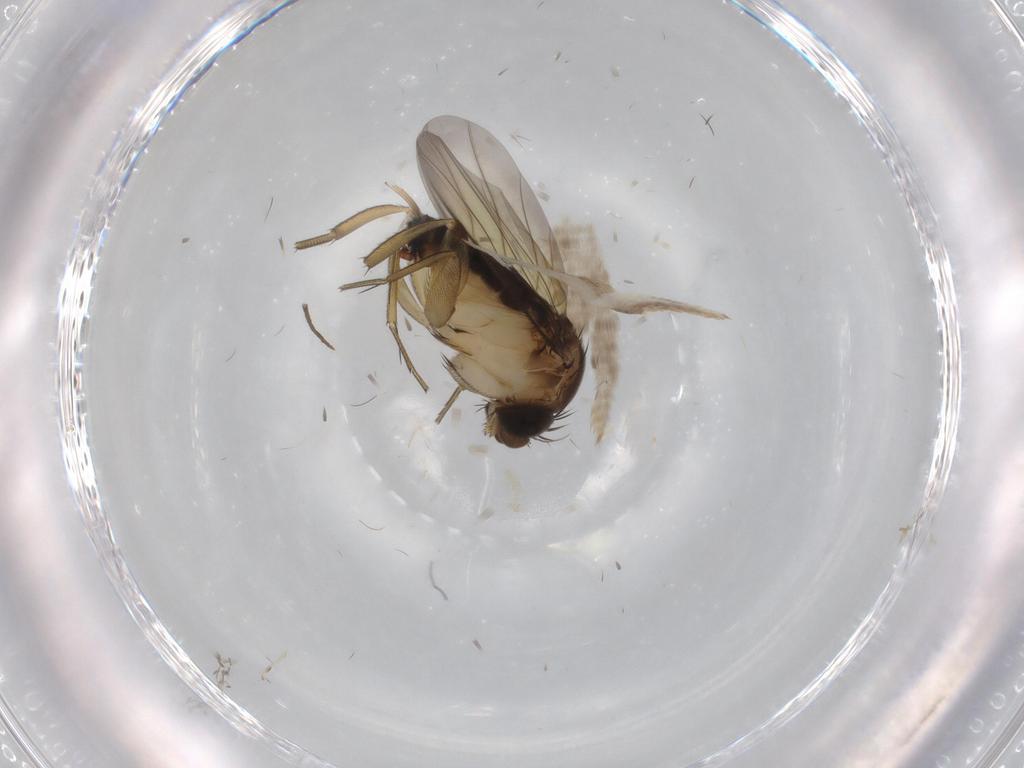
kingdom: Animalia
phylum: Arthropoda
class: Insecta
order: Diptera
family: Phoridae
